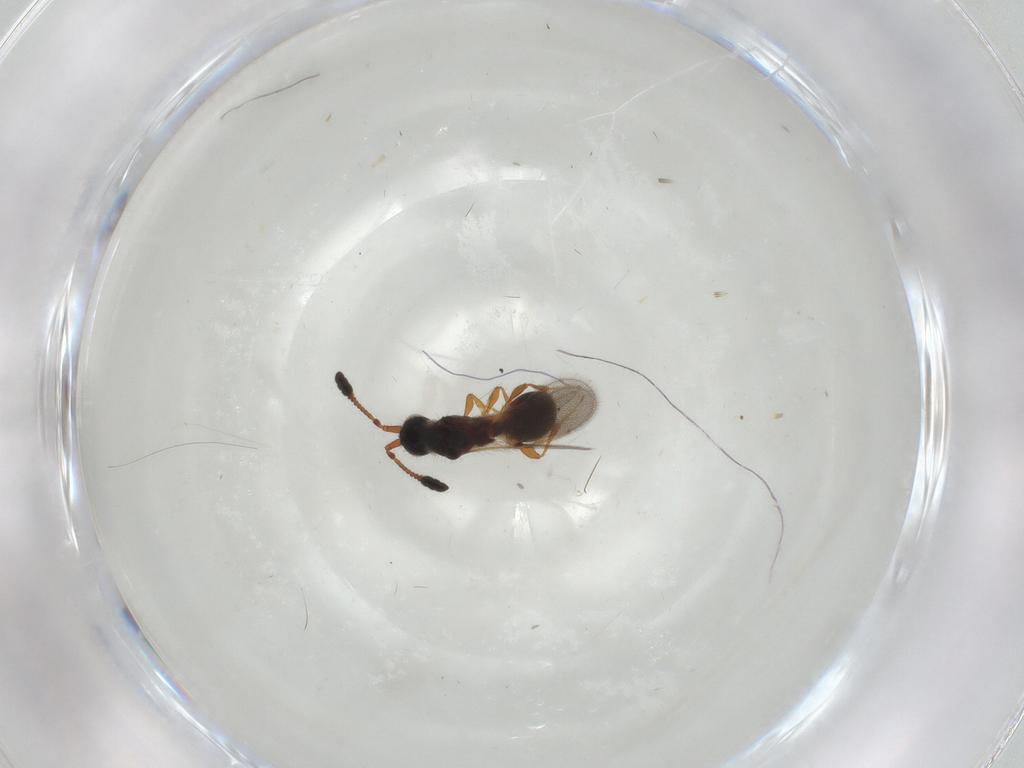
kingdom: Animalia
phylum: Arthropoda
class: Insecta
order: Hymenoptera
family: Diapriidae
